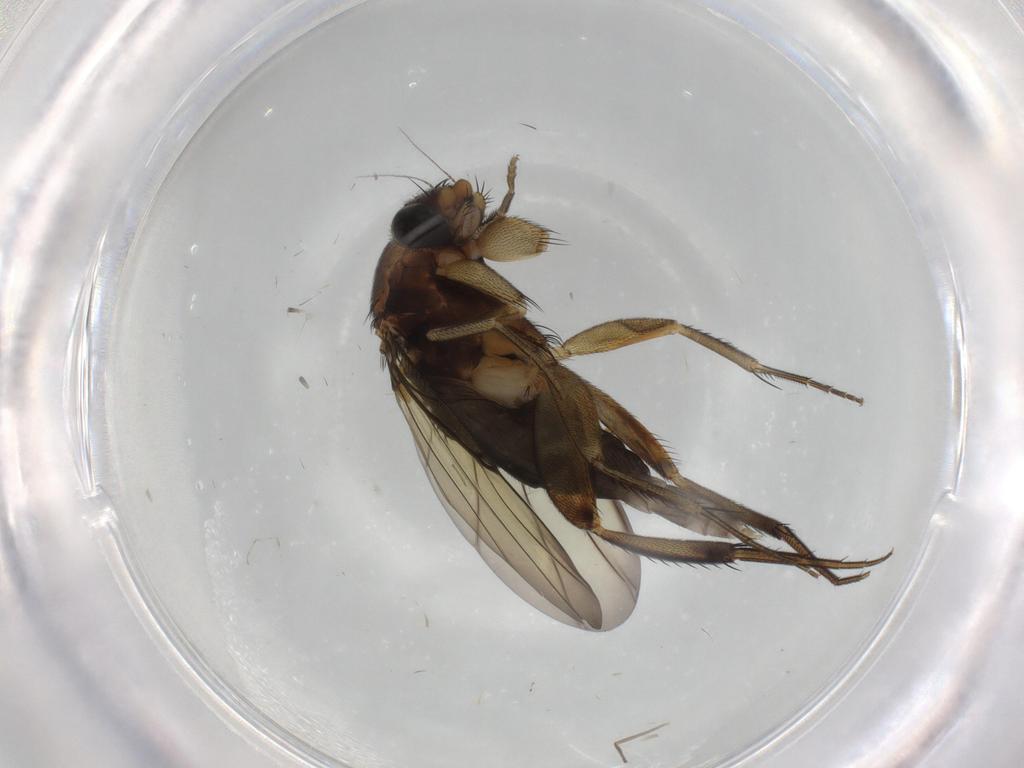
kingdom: Animalia
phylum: Arthropoda
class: Insecta
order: Diptera
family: Phoridae
